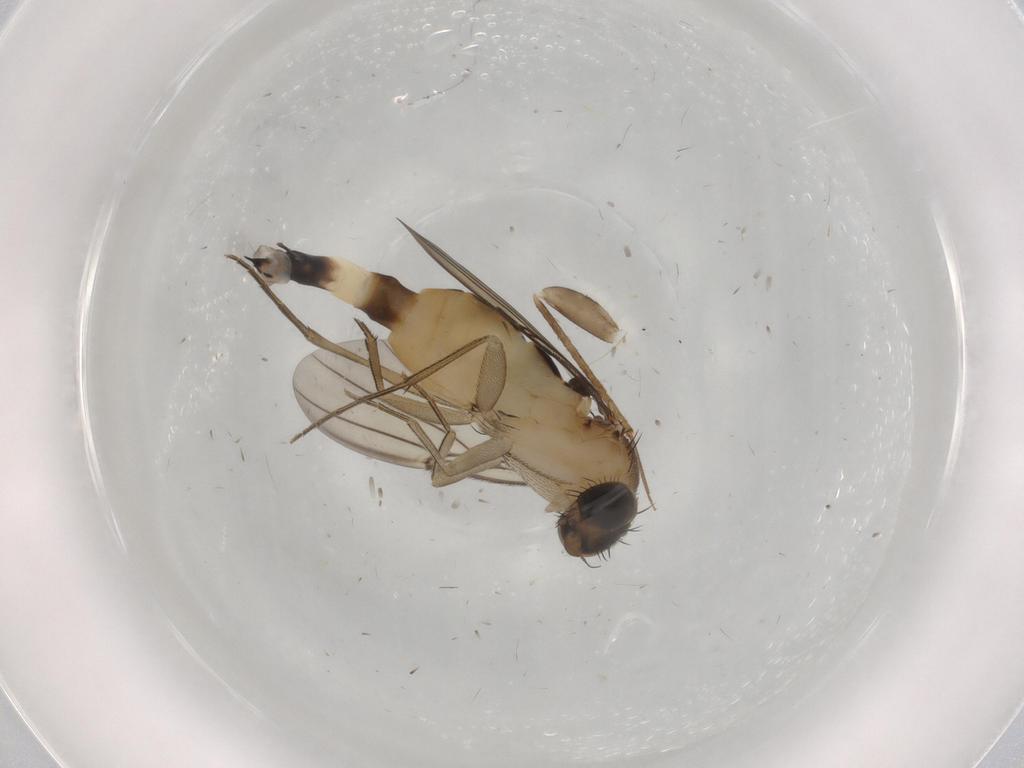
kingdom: Animalia
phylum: Arthropoda
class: Insecta
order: Diptera
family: Phoridae
